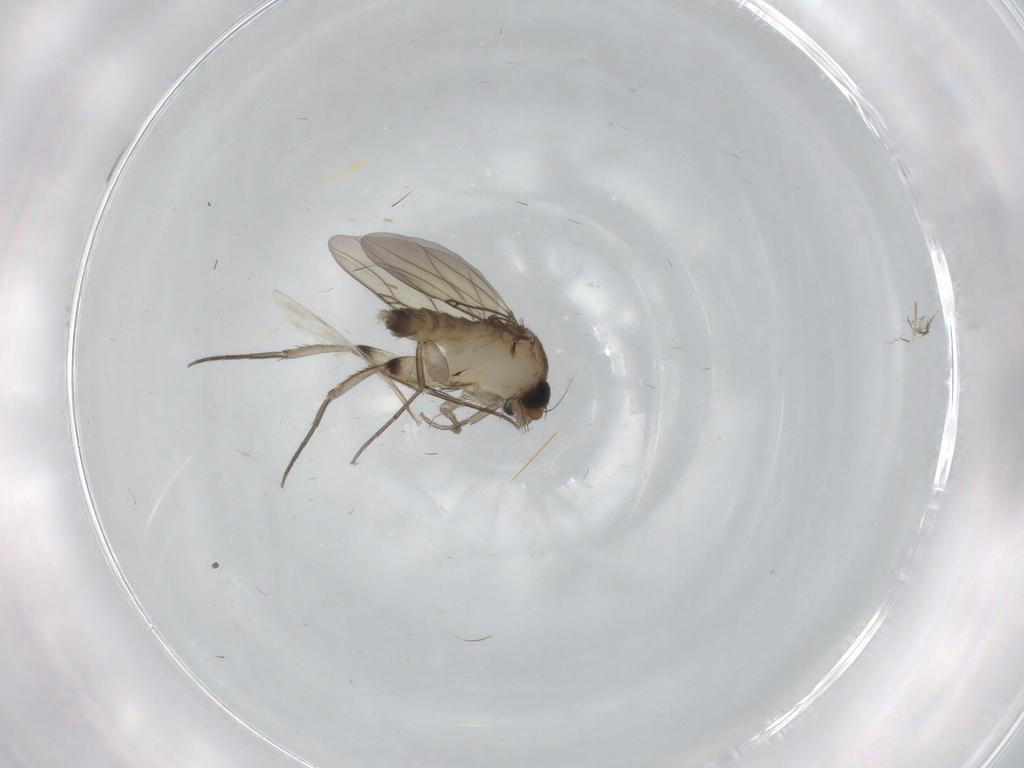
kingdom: Animalia
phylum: Arthropoda
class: Insecta
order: Diptera
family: Phoridae
